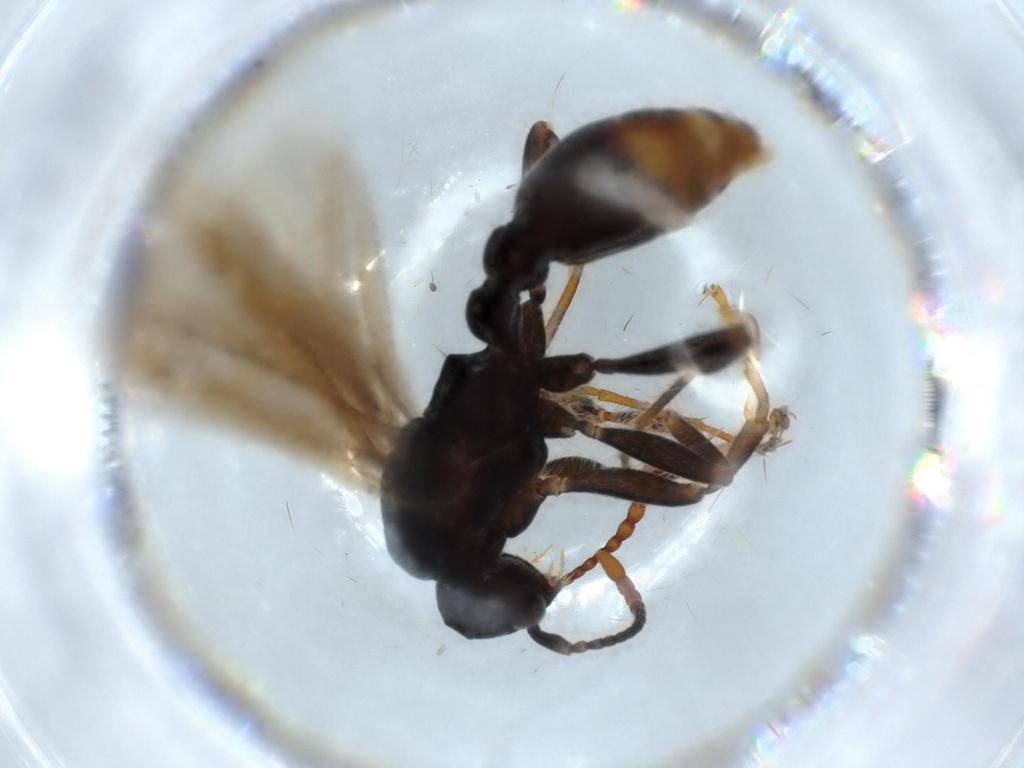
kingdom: Animalia
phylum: Arthropoda
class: Insecta
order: Hymenoptera
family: Formicidae
